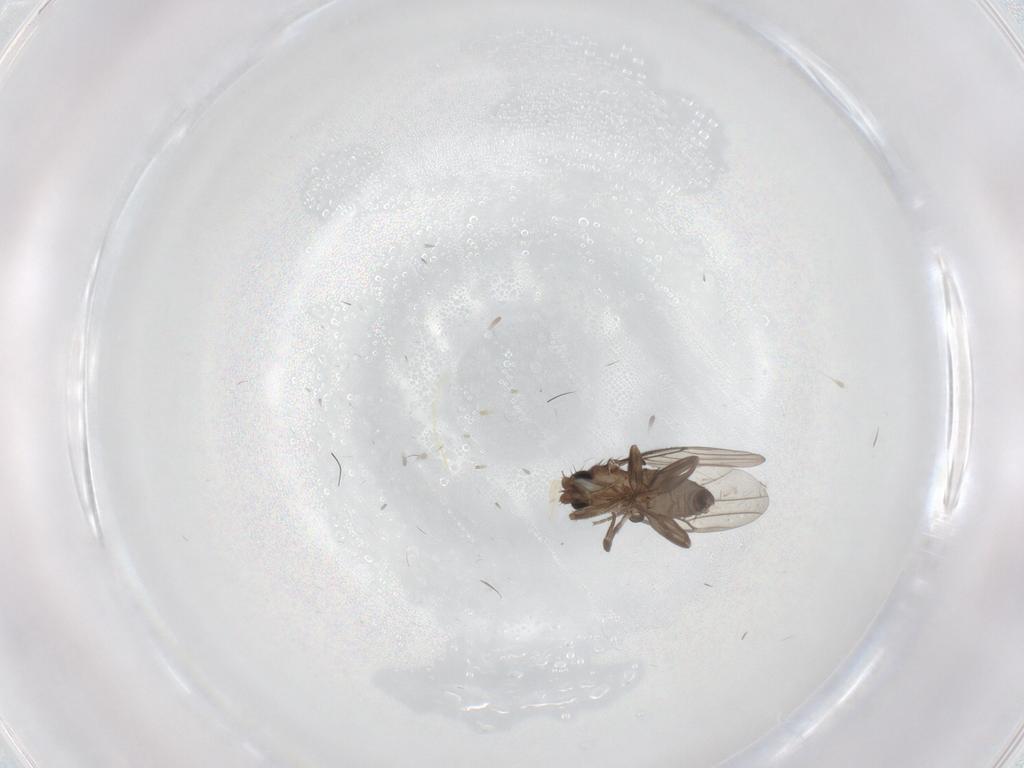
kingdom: Animalia
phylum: Arthropoda
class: Insecta
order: Diptera
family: Phoridae
